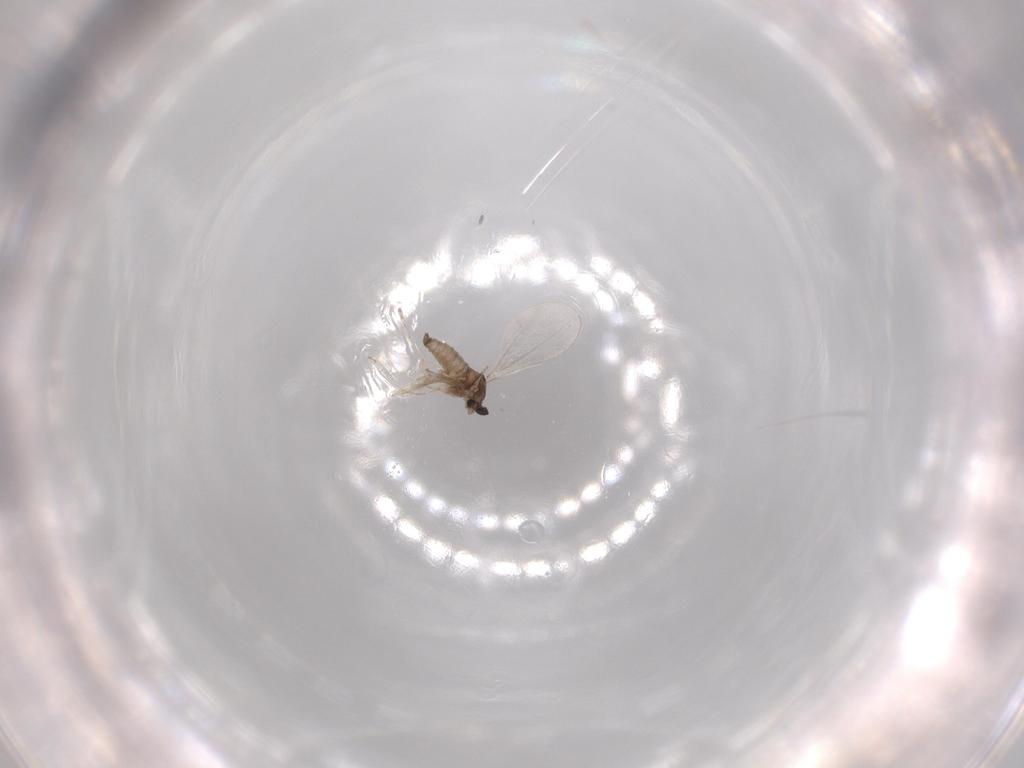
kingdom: Animalia
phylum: Arthropoda
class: Insecta
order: Diptera
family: Cecidomyiidae
